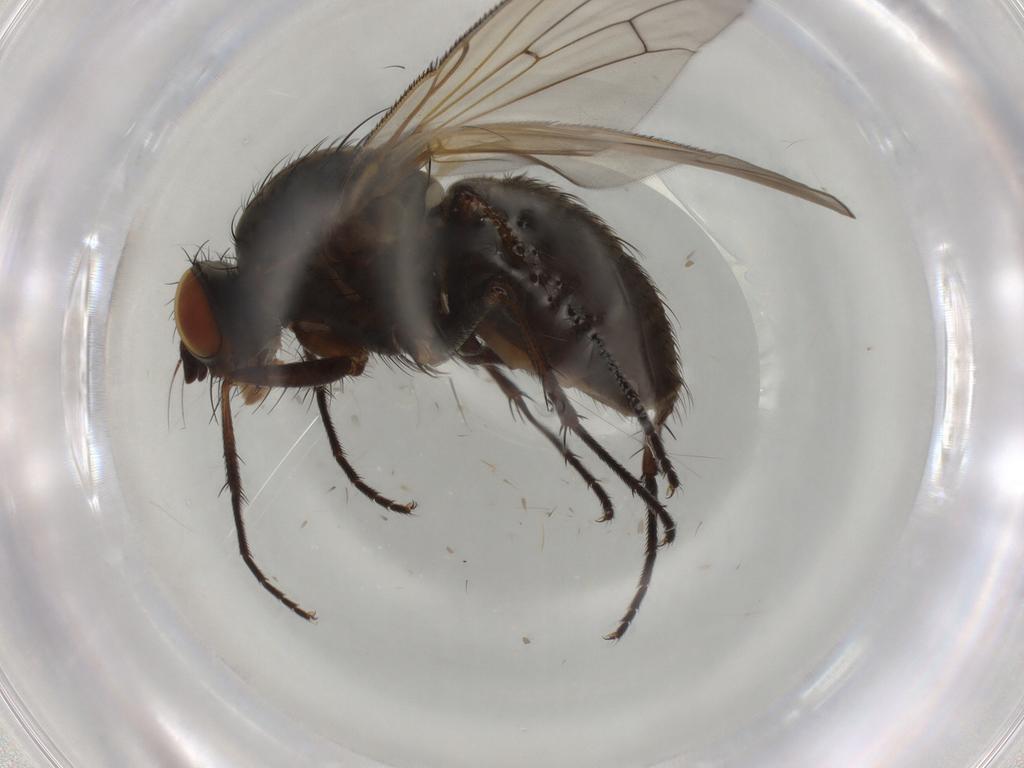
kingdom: Animalia
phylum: Arthropoda
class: Insecta
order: Diptera
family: Anthomyiidae
